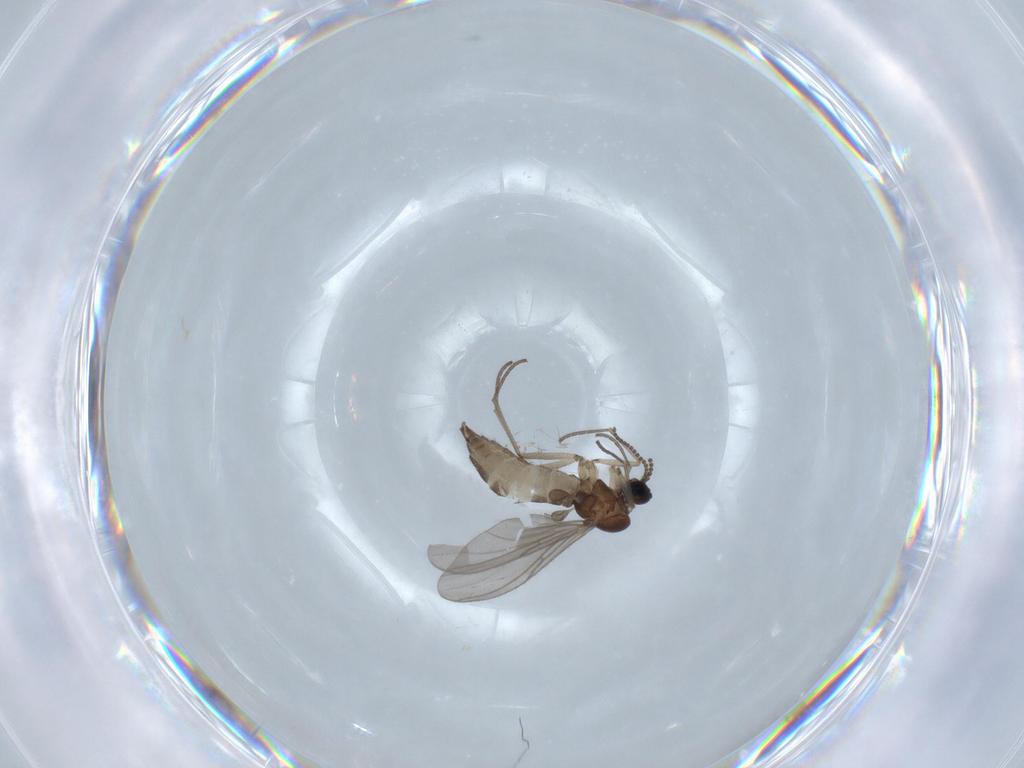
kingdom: Animalia
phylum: Arthropoda
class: Insecta
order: Diptera
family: Sciaridae
